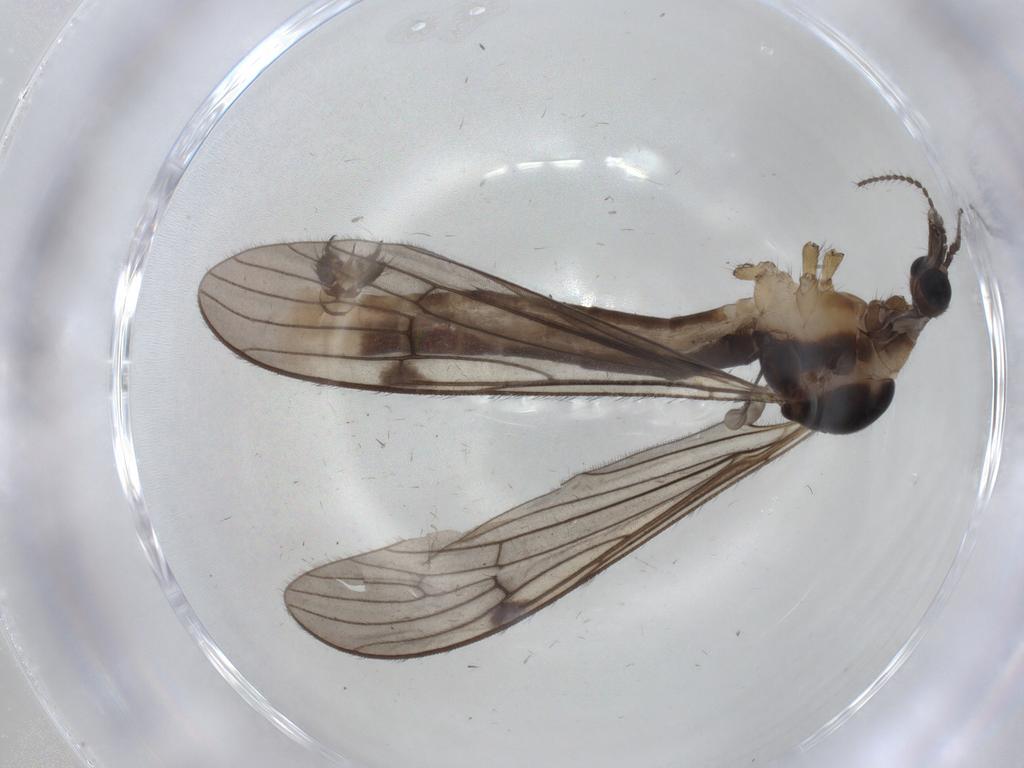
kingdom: Animalia
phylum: Arthropoda
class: Insecta
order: Diptera
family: Limoniidae
